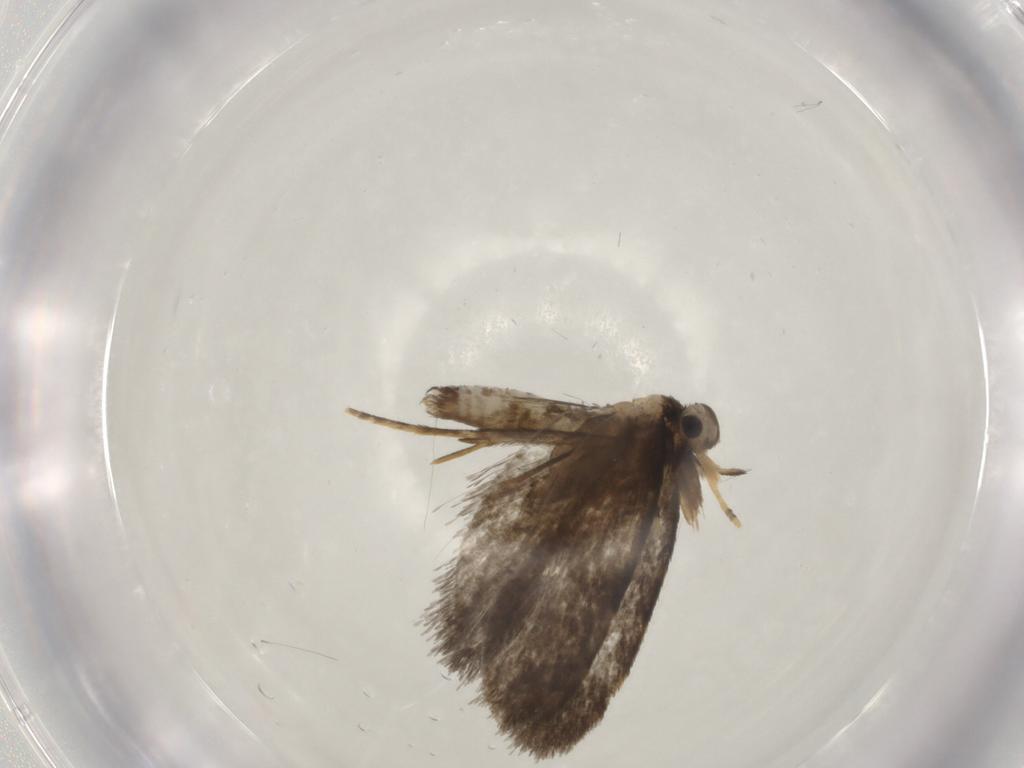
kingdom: Animalia
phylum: Arthropoda
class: Insecta
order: Lepidoptera
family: Psychidae
